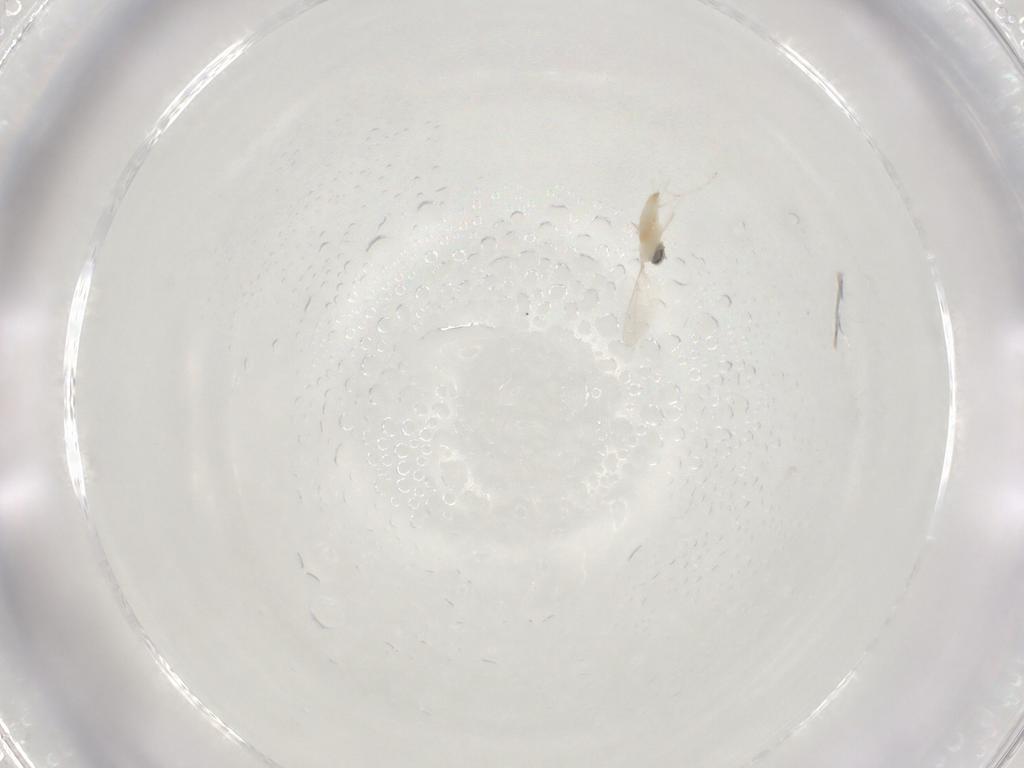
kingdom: Animalia
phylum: Arthropoda
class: Insecta
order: Diptera
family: Cecidomyiidae
